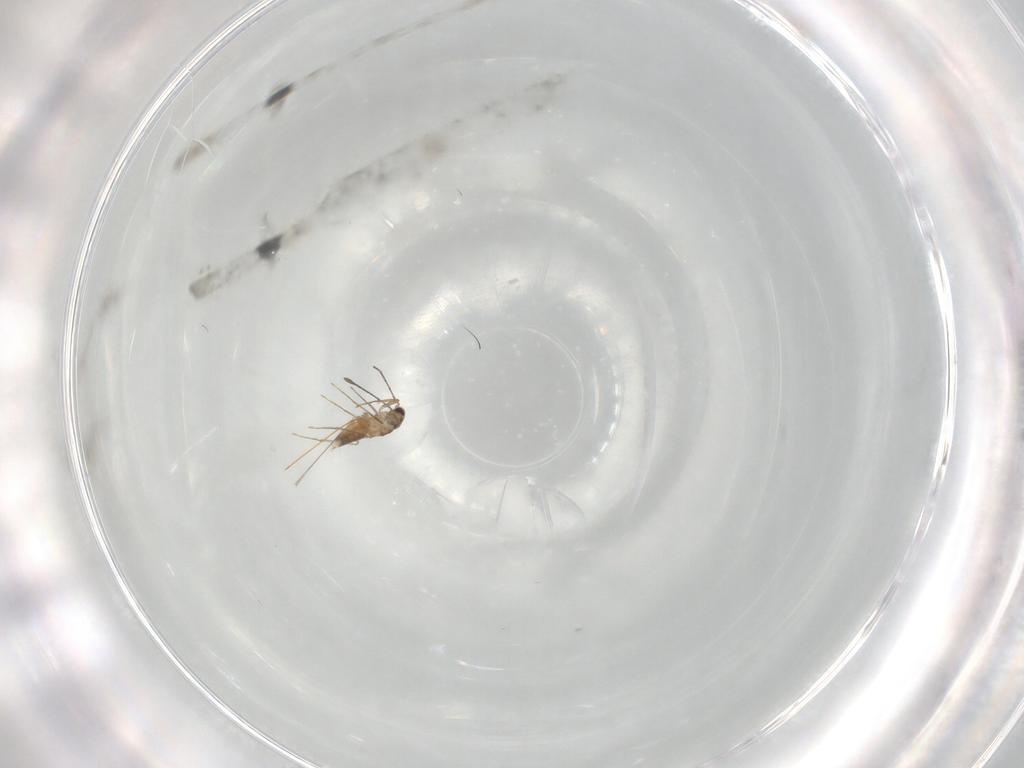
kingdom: Animalia
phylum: Arthropoda
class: Insecta
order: Hymenoptera
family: Mymaridae
